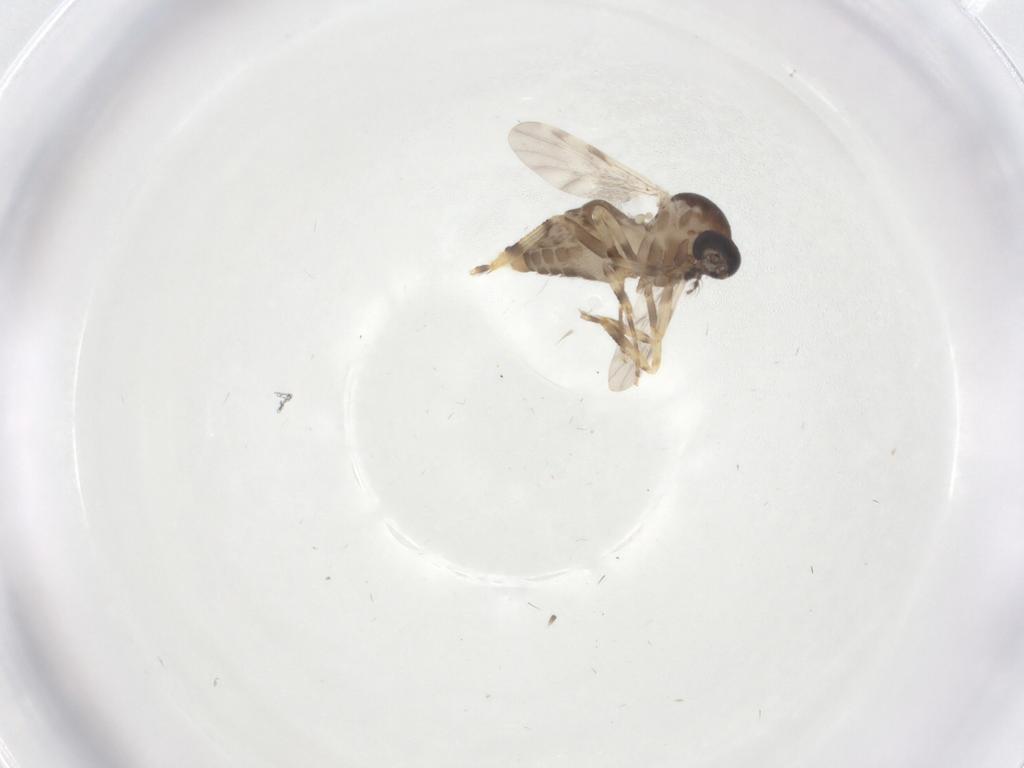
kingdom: Animalia
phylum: Arthropoda
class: Insecta
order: Diptera
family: Ceratopogonidae
